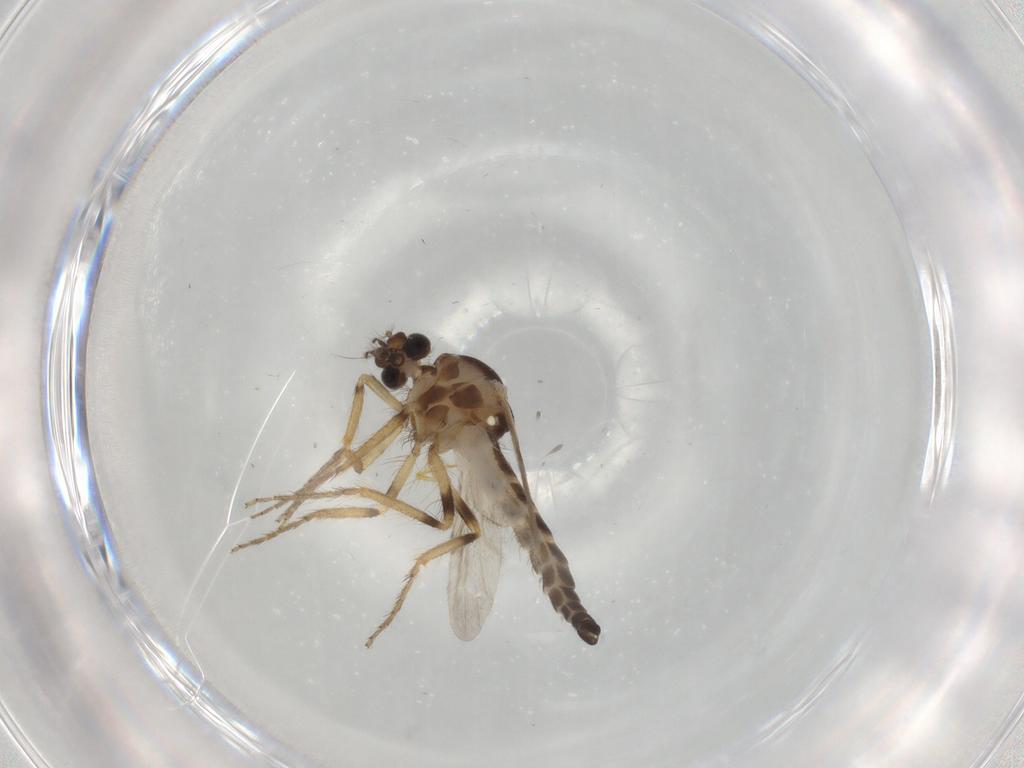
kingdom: Animalia
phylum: Arthropoda
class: Insecta
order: Diptera
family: Ceratopogonidae
